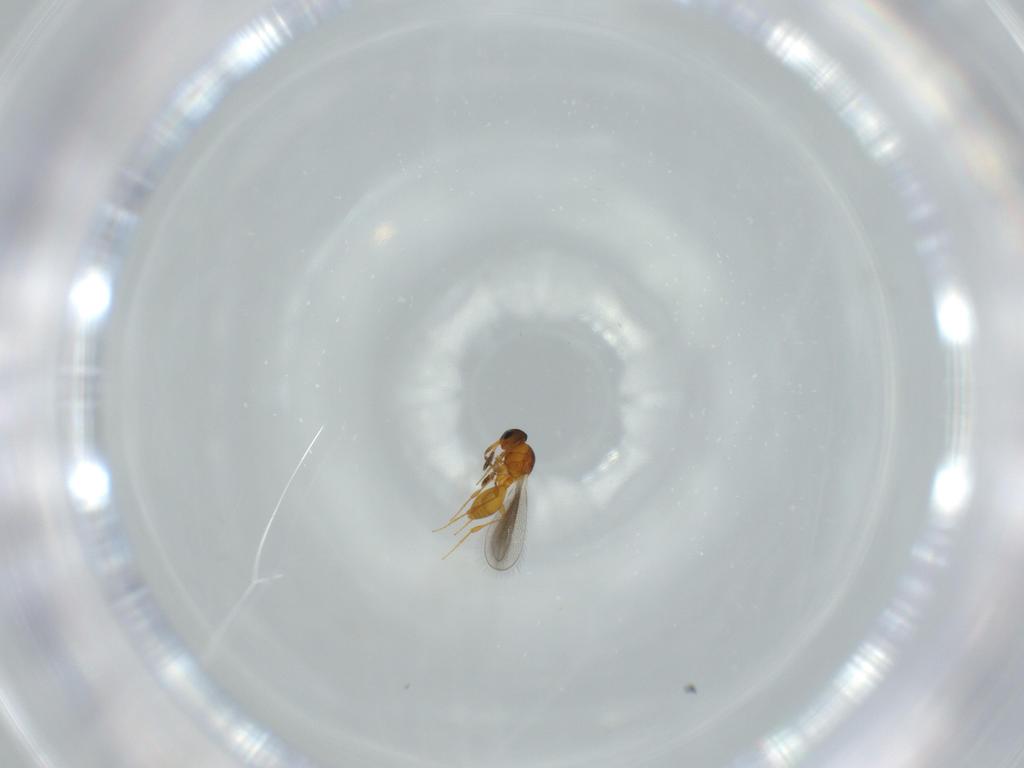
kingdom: Animalia
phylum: Arthropoda
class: Insecta
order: Hymenoptera
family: Platygastridae
